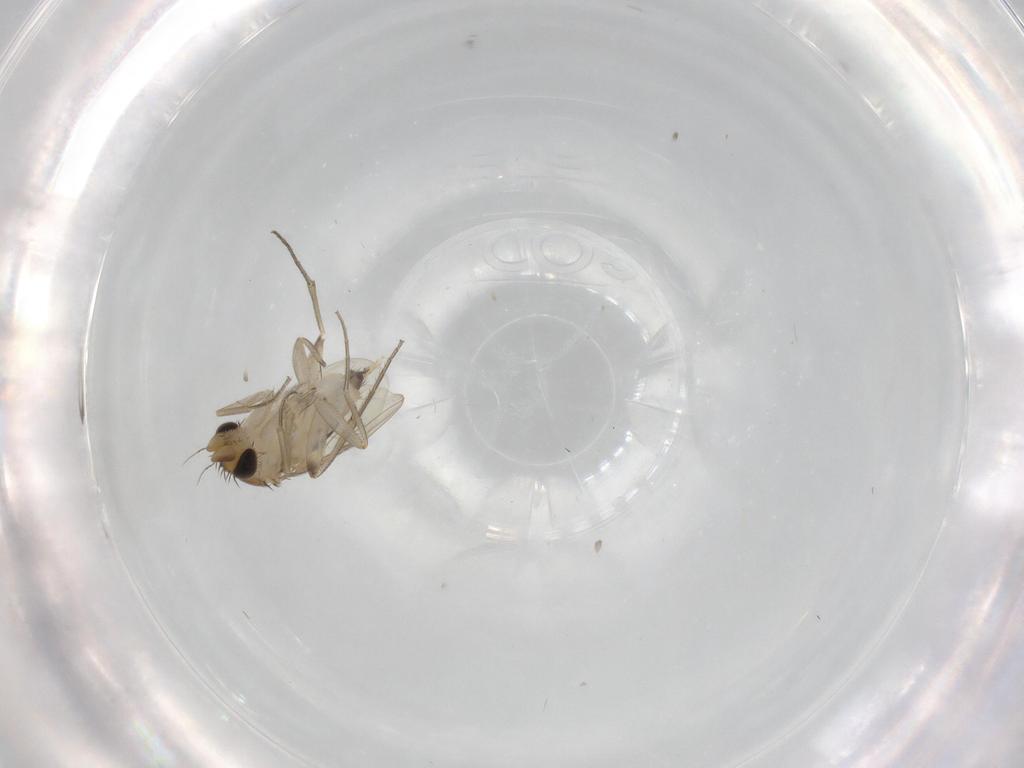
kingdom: Animalia
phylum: Arthropoda
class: Insecta
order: Diptera
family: Phoridae
